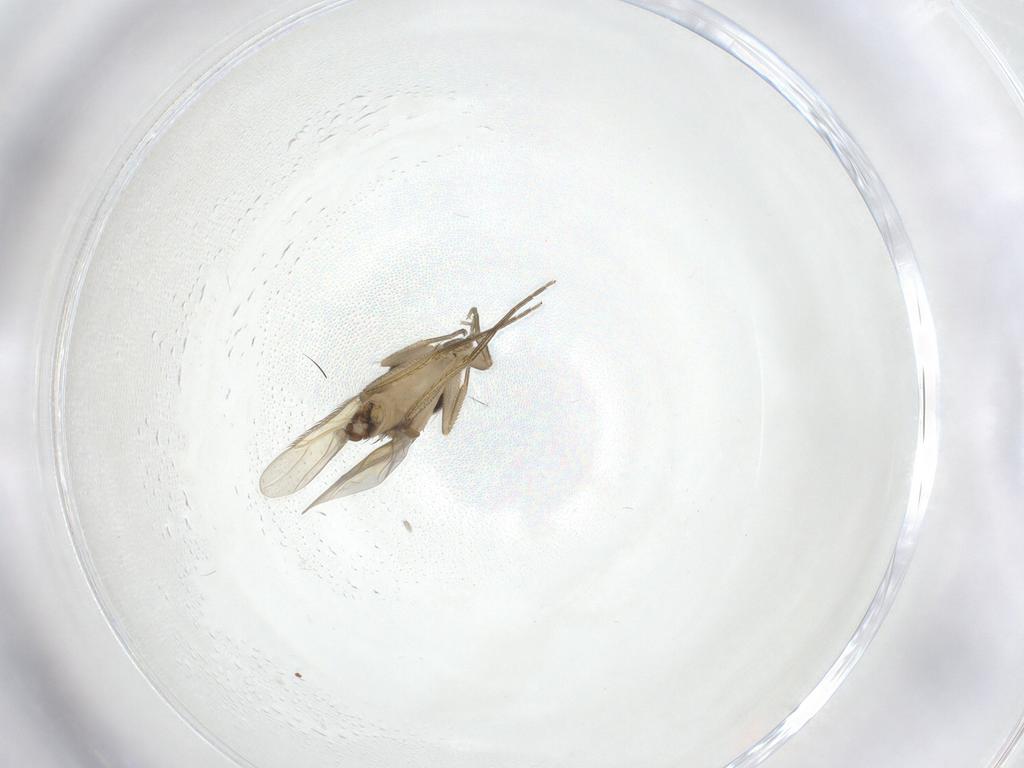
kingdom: Animalia
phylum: Arthropoda
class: Insecta
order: Diptera
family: Phoridae
